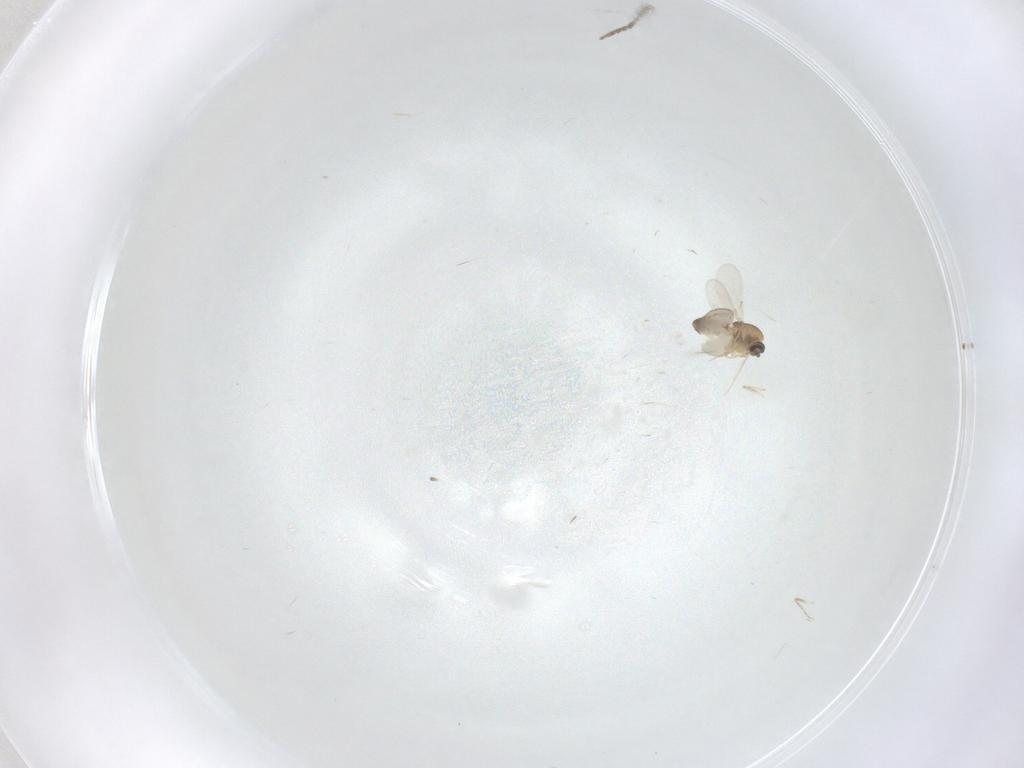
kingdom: Animalia
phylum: Arthropoda
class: Insecta
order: Diptera
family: Ceratopogonidae
